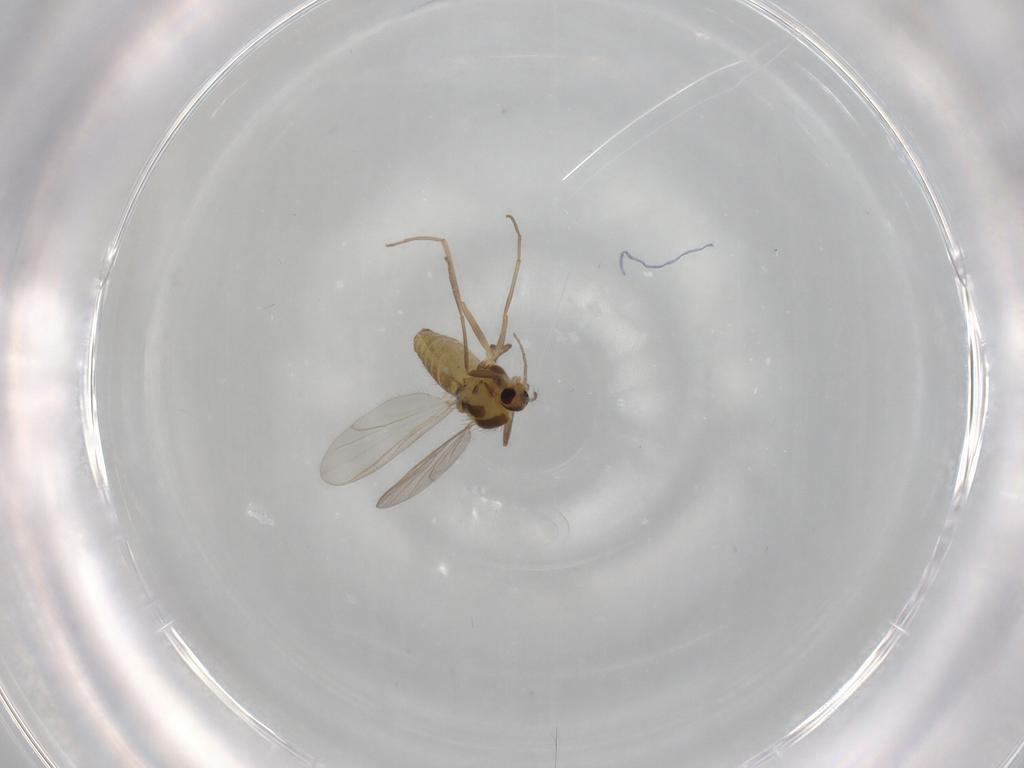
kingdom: Animalia
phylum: Arthropoda
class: Insecta
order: Diptera
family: Chironomidae
